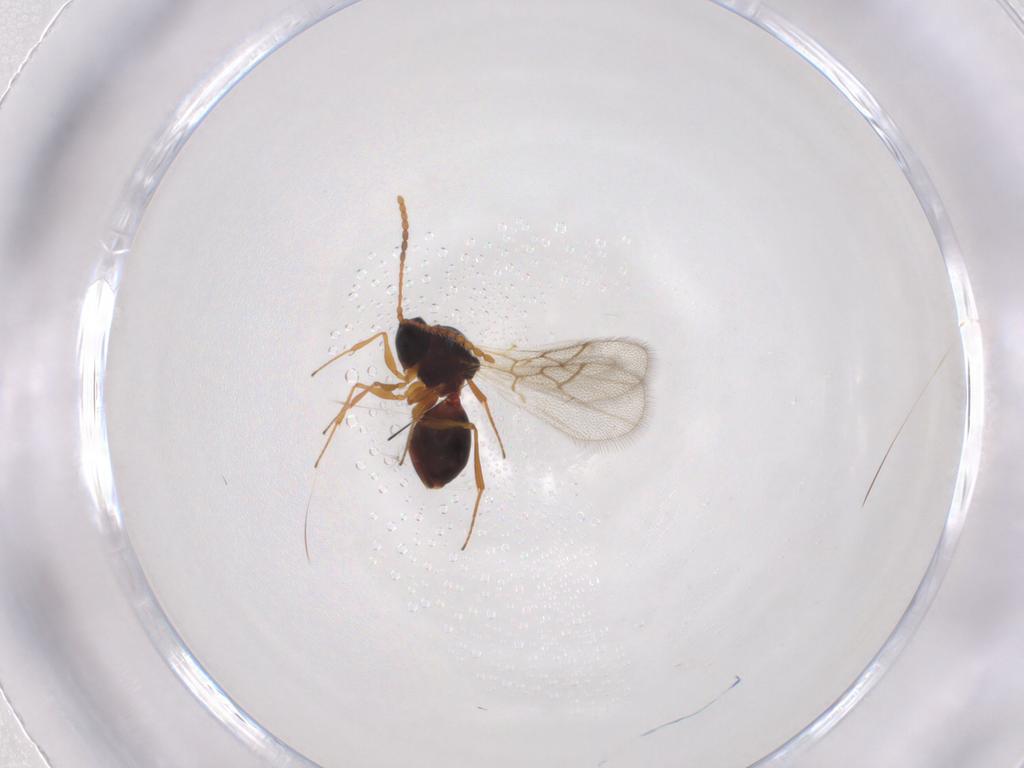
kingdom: Animalia
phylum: Arthropoda
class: Insecta
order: Hymenoptera
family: Figitidae
